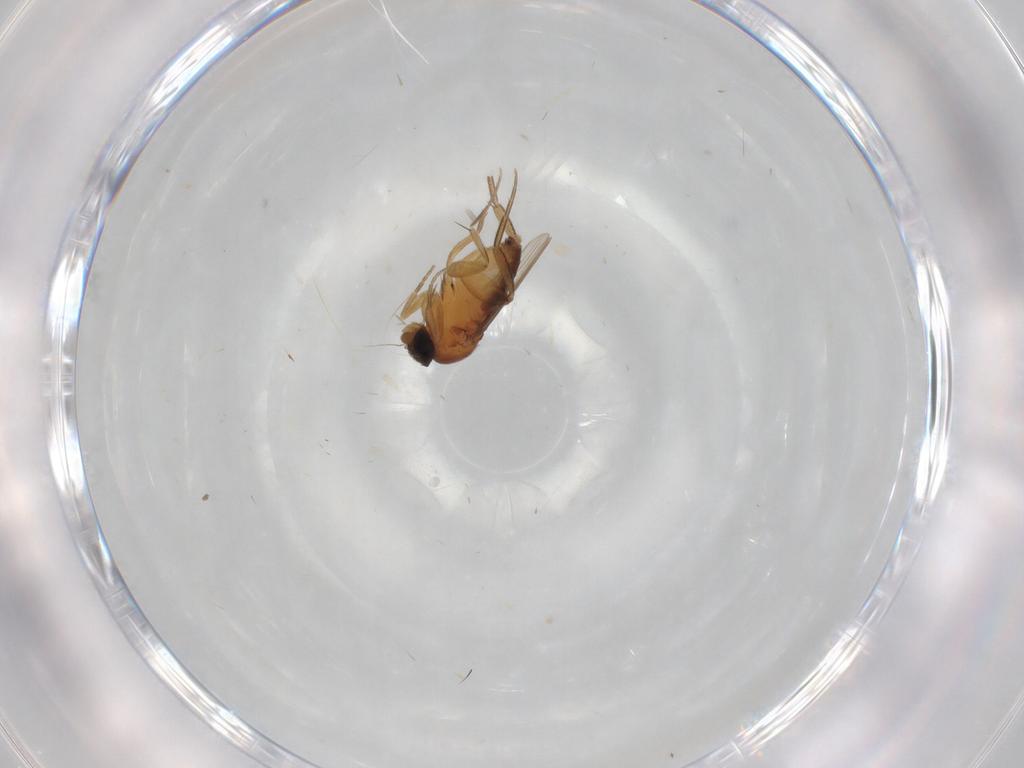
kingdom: Animalia
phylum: Arthropoda
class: Insecta
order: Diptera
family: Phoridae
